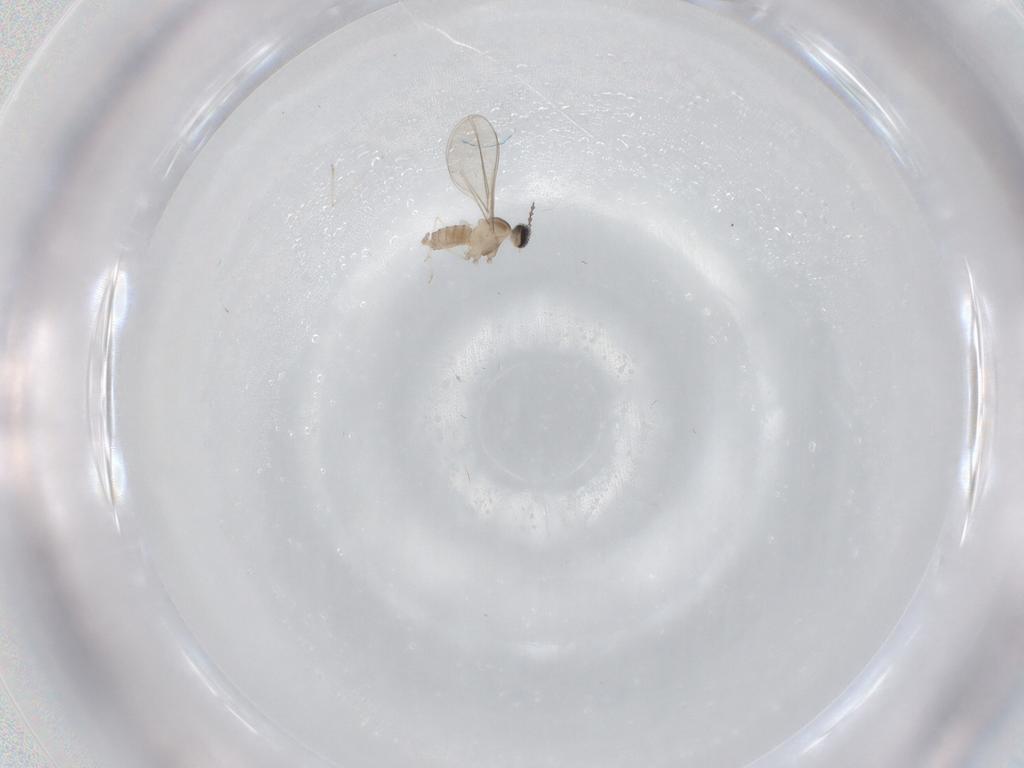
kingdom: Animalia
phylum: Arthropoda
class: Insecta
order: Diptera
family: Cecidomyiidae
